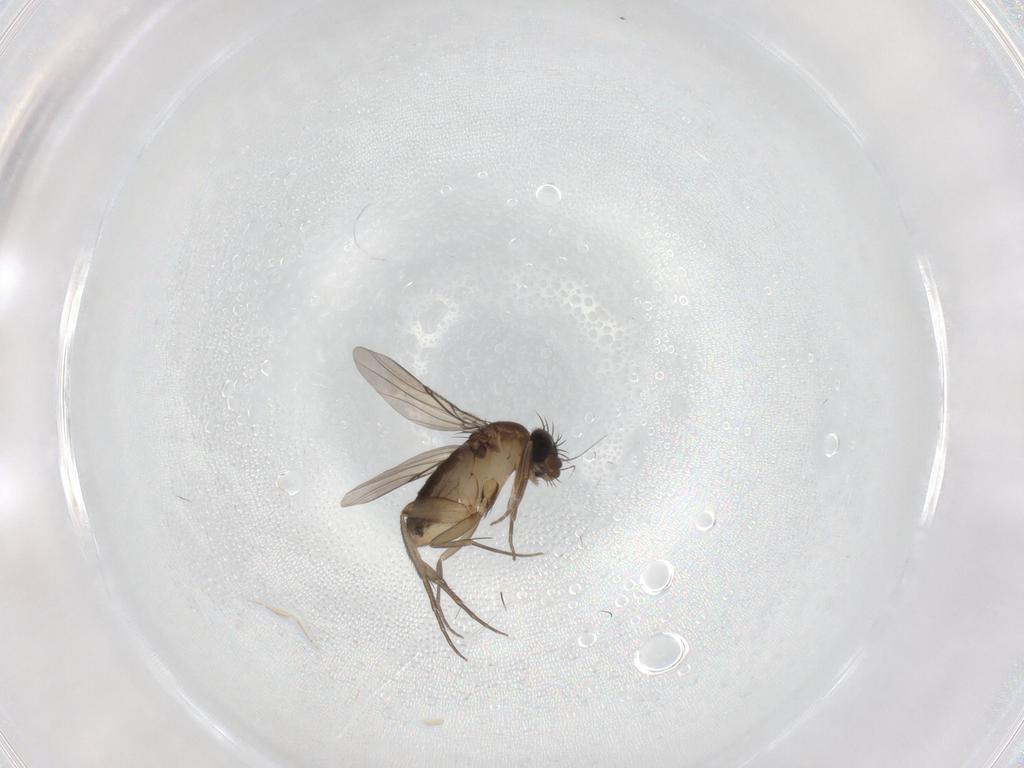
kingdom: Animalia
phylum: Arthropoda
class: Insecta
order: Diptera
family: Phoridae
